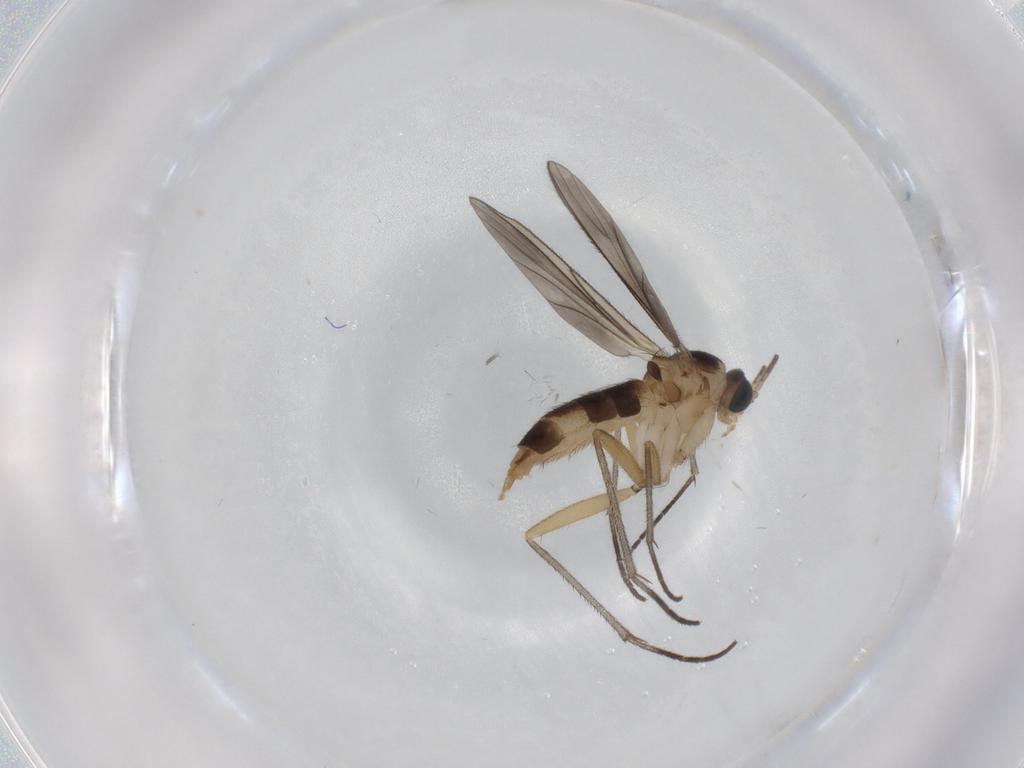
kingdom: Animalia
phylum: Arthropoda
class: Insecta
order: Diptera
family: Sciaridae
